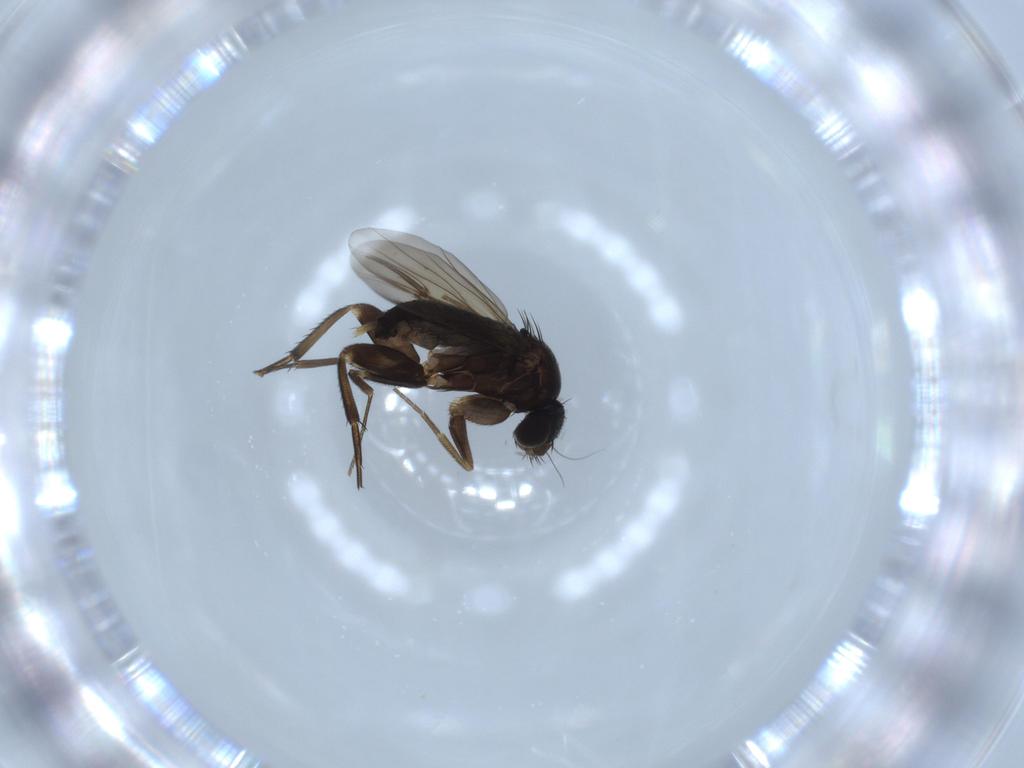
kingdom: Animalia
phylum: Arthropoda
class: Insecta
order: Diptera
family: Phoridae
